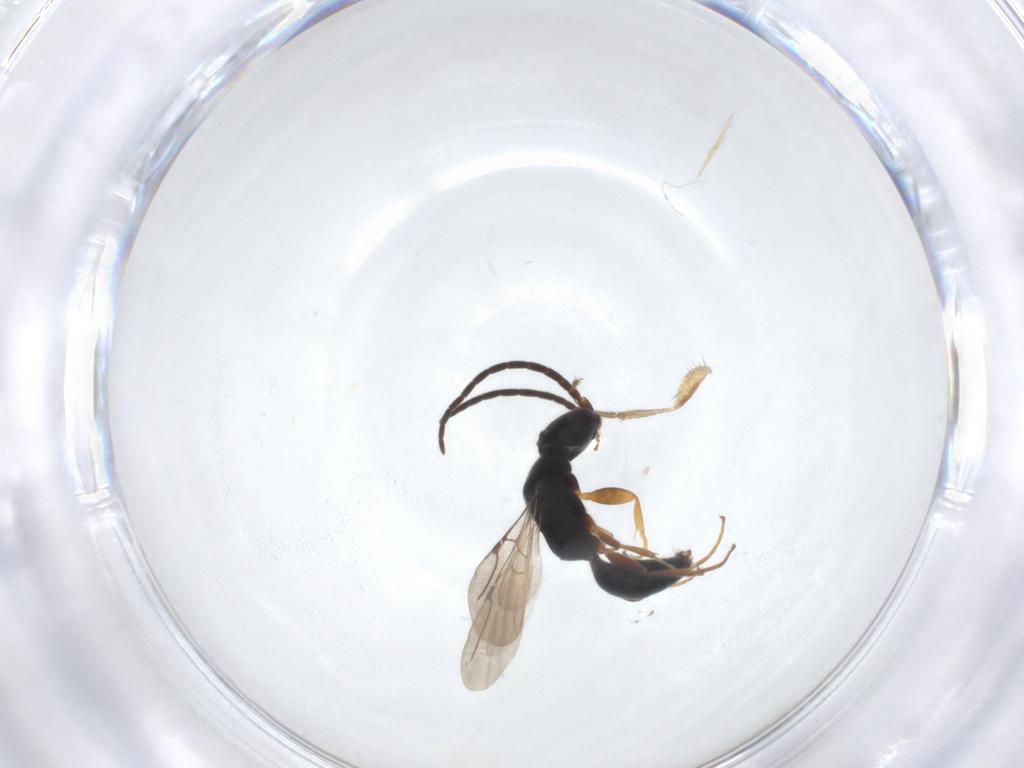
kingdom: Animalia
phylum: Arthropoda
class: Insecta
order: Hymenoptera
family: Bethylidae
